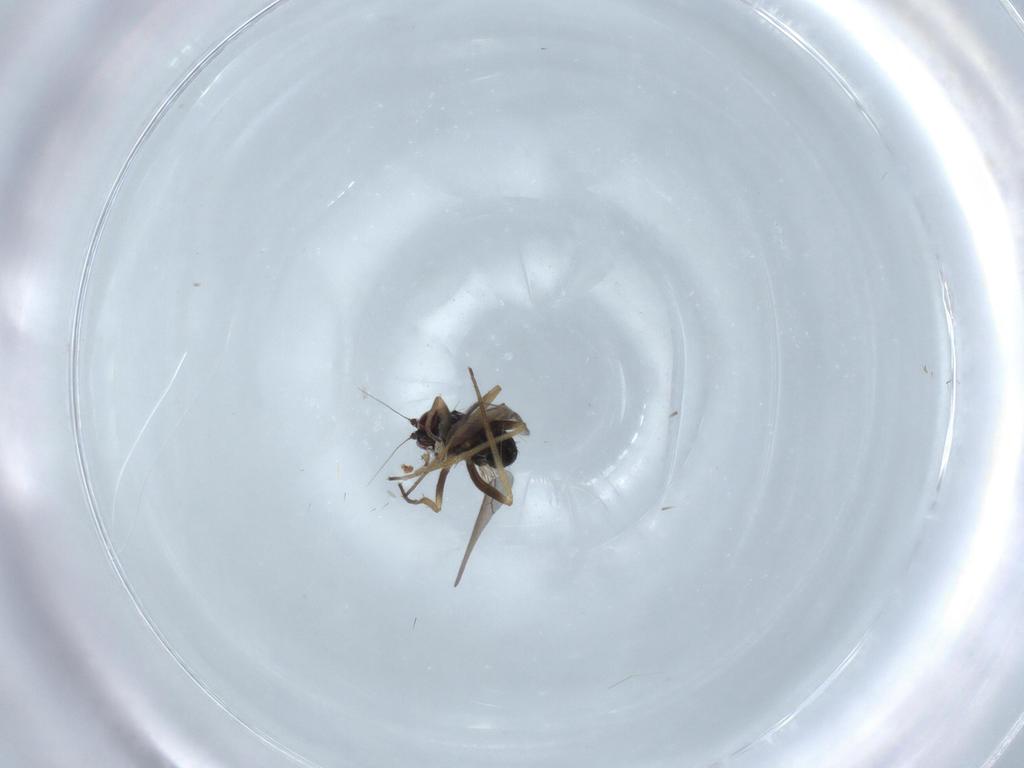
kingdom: Animalia
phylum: Arthropoda
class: Insecta
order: Diptera
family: Dolichopodidae
